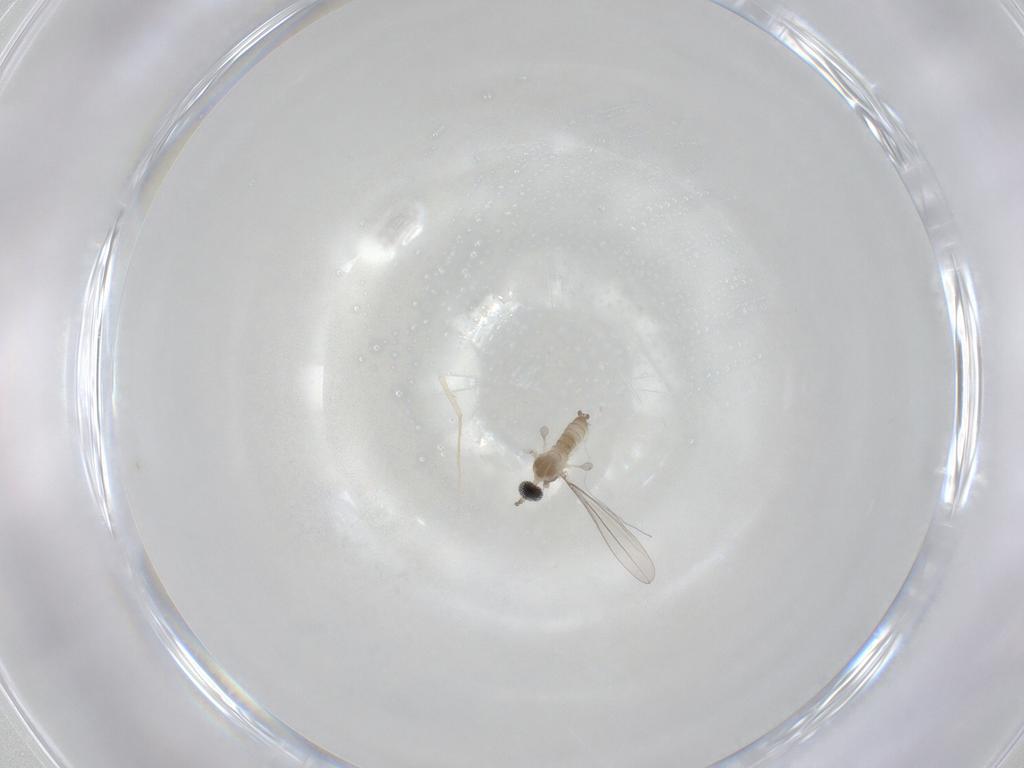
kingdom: Animalia
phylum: Arthropoda
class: Insecta
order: Diptera
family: Cecidomyiidae
